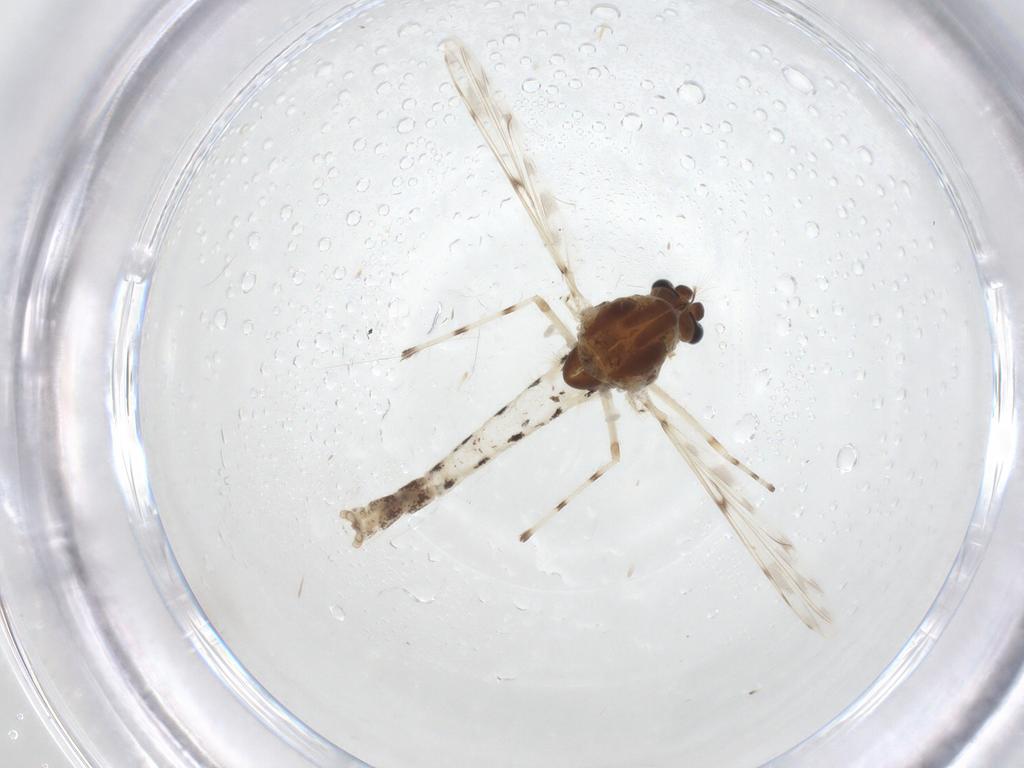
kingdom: Animalia
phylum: Arthropoda
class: Insecta
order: Diptera
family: Chironomidae
